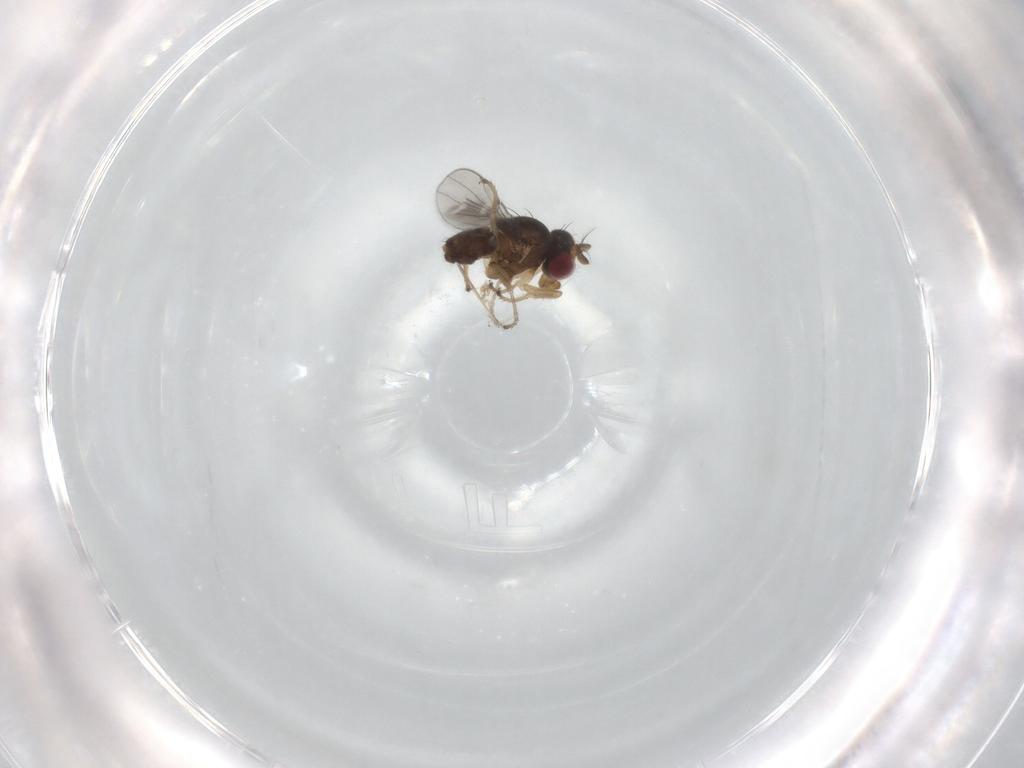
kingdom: Animalia
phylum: Arthropoda
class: Insecta
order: Diptera
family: Ephydridae
